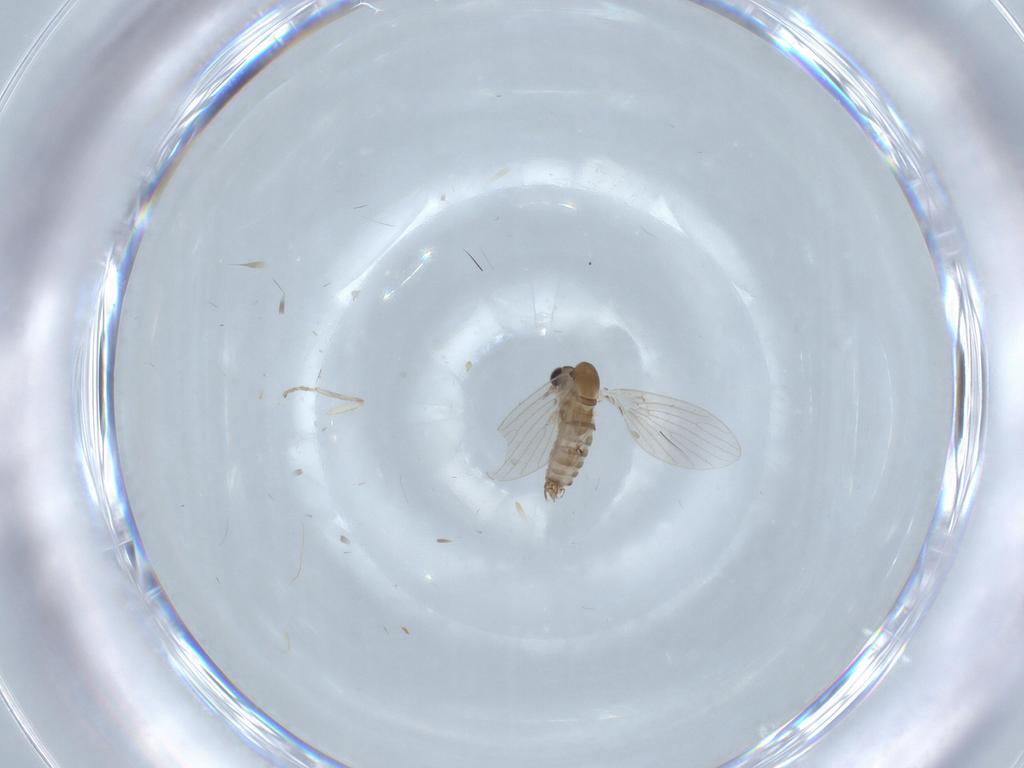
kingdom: Animalia
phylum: Arthropoda
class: Insecta
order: Diptera
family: Psychodidae
